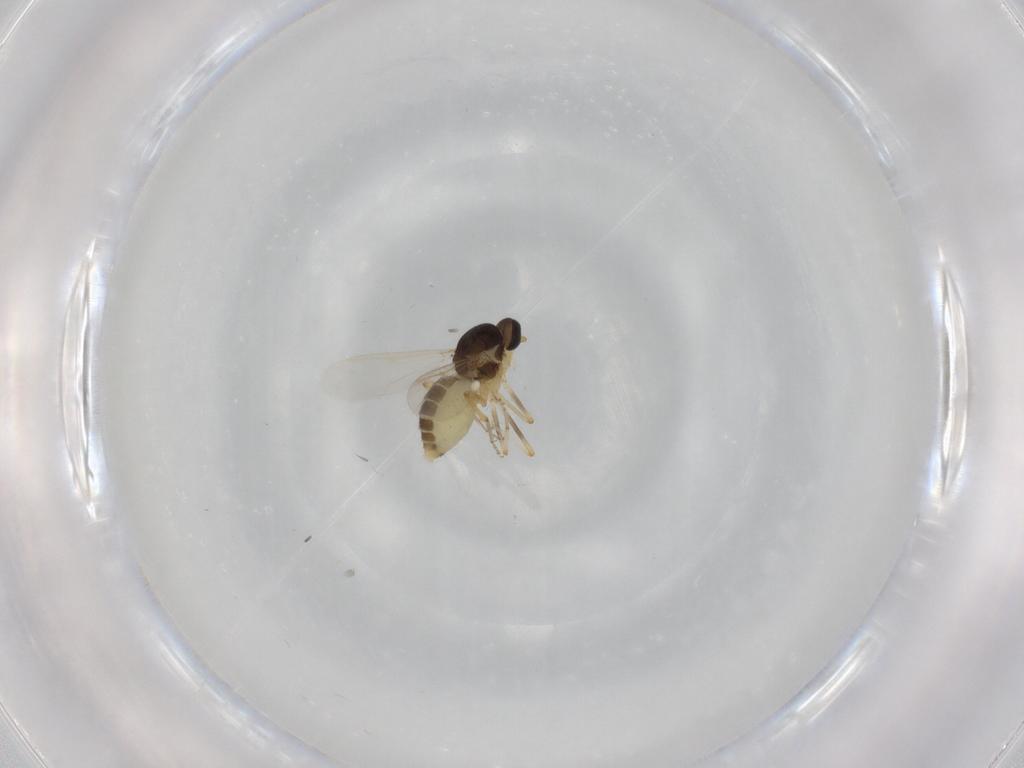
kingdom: Animalia
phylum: Arthropoda
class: Insecta
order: Diptera
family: Ceratopogonidae
